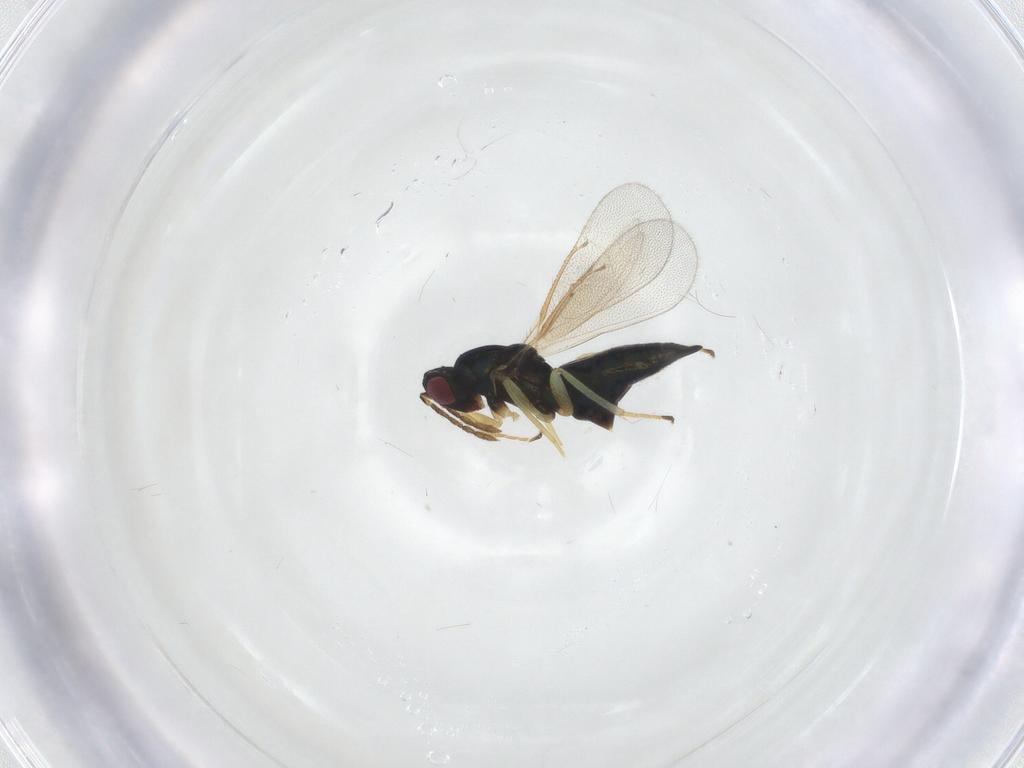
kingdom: Animalia
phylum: Arthropoda
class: Insecta
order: Hymenoptera
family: Eulophidae
